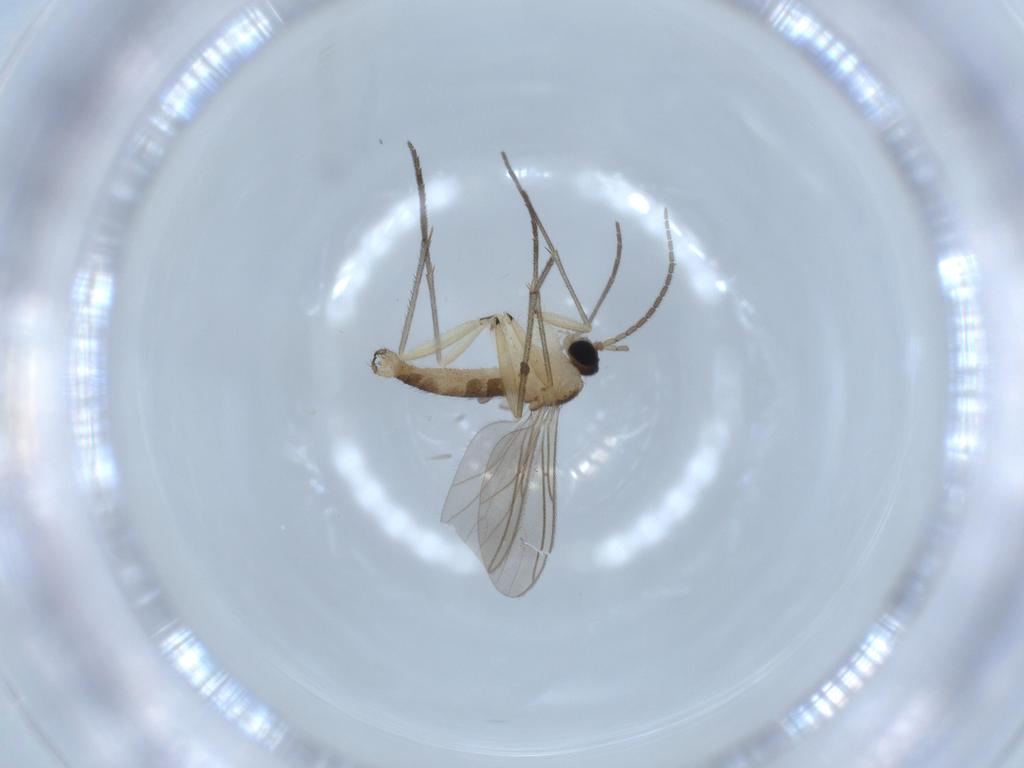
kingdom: Animalia
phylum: Arthropoda
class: Insecta
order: Diptera
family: Sciaridae
